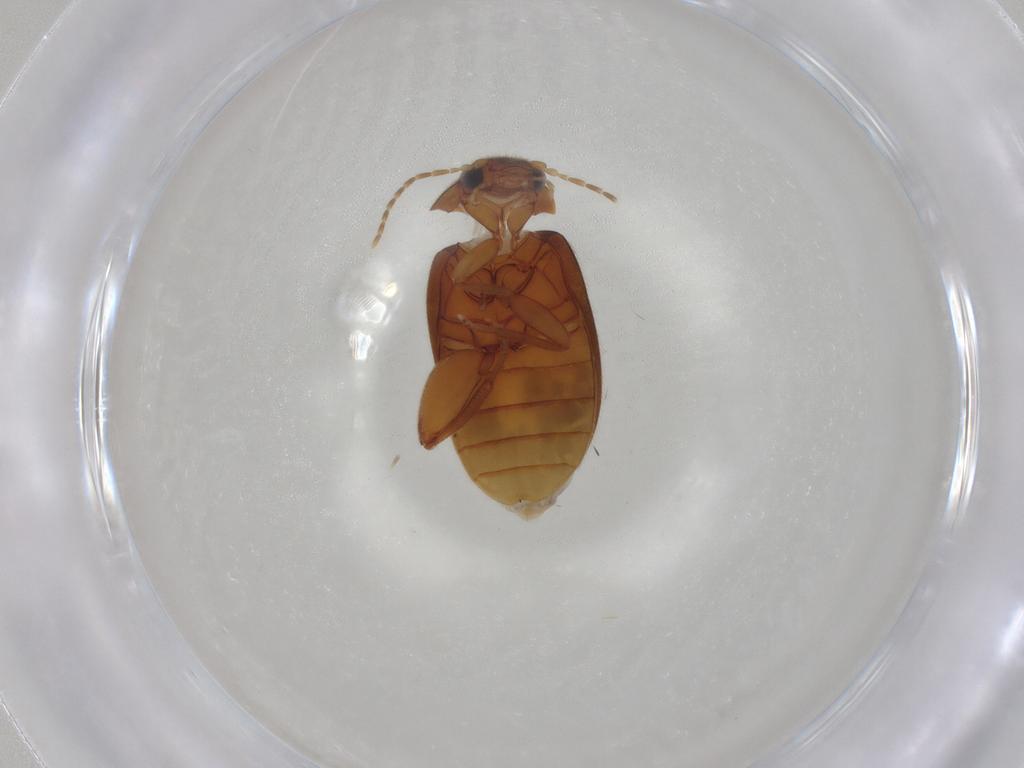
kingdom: Animalia
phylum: Arthropoda
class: Insecta
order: Coleoptera
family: Scirtidae
